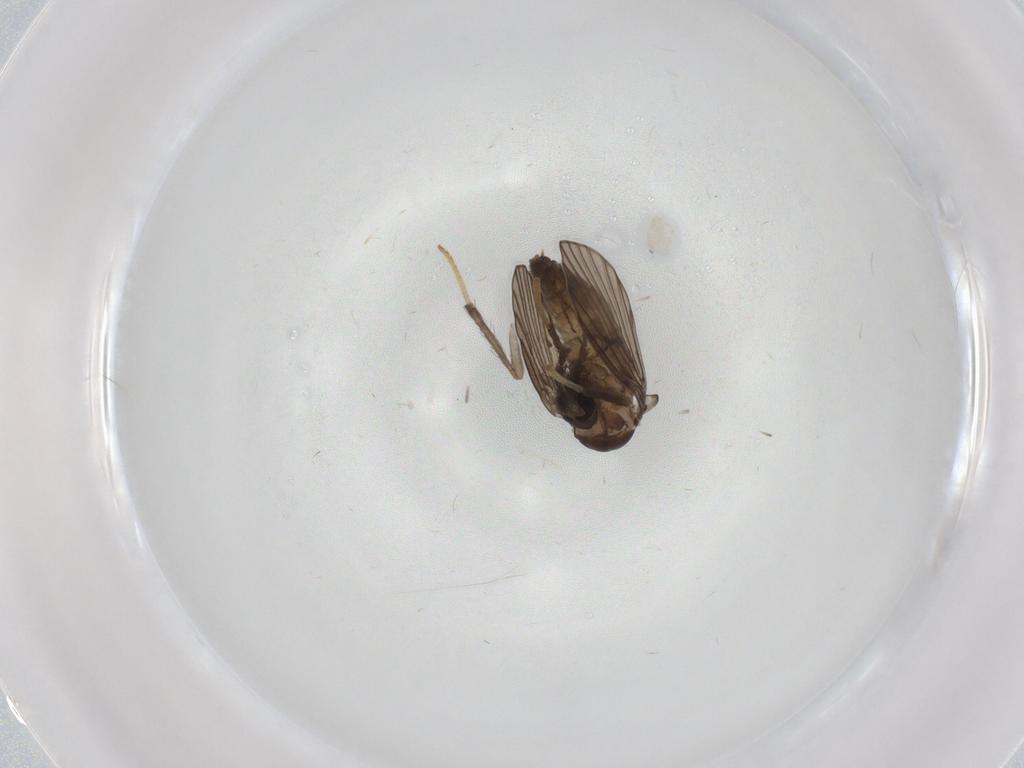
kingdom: Animalia
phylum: Arthropoda
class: Insecta
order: Diptera
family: Psychodidae
